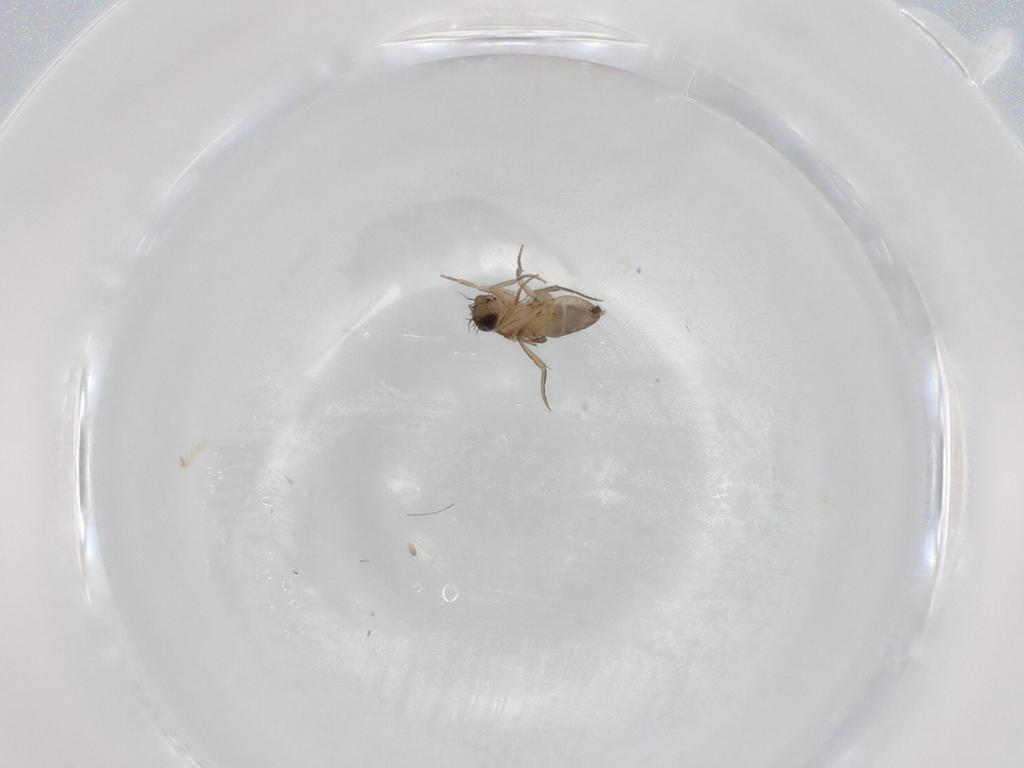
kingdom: Animalia
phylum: Arthropoda
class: Insecta
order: Diptera
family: Phoridae
